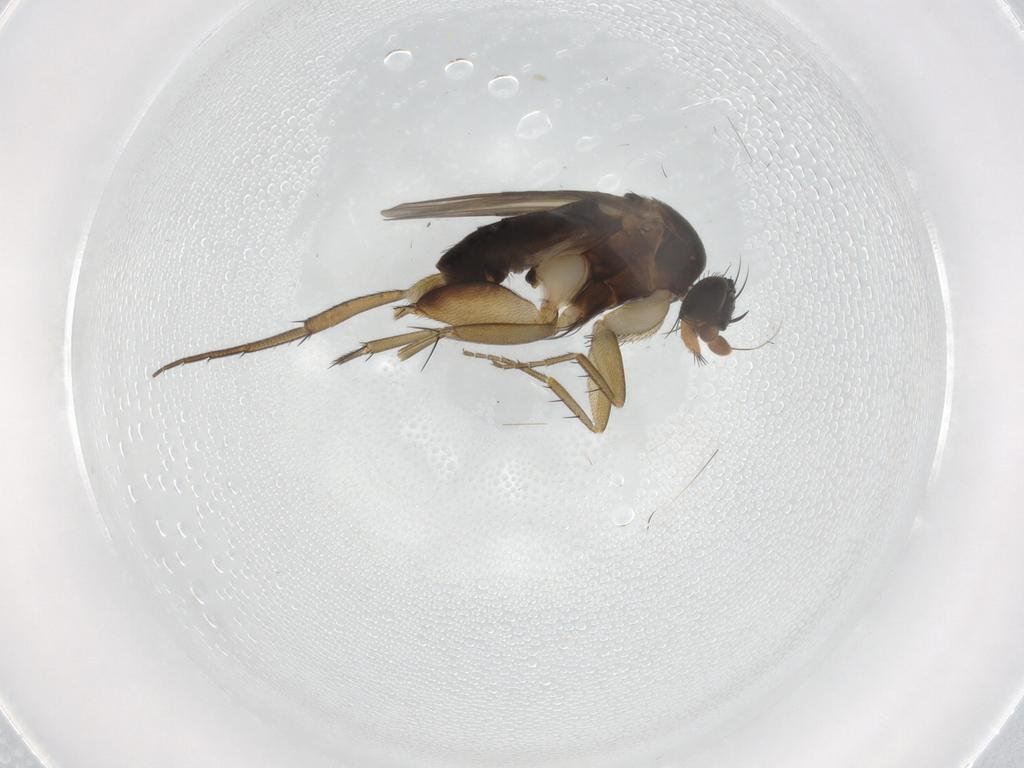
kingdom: Animalia
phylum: Arthropoda
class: Insecta
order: Diptera
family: Phoridae
